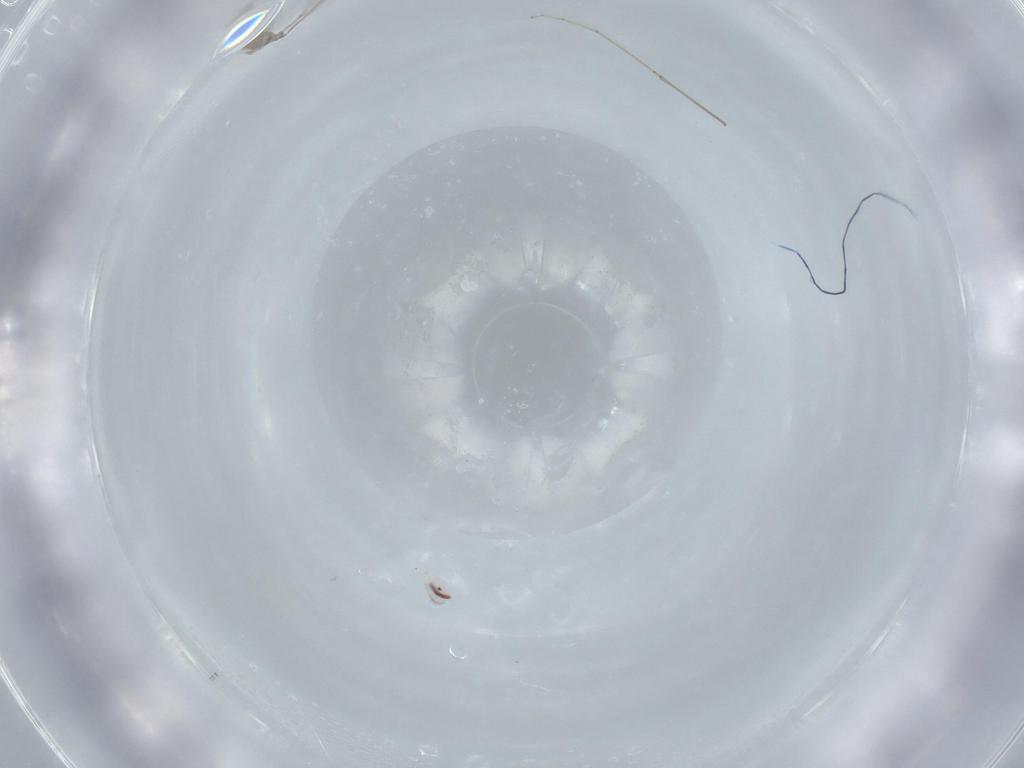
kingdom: Animalia
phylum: Arthropoda
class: Insecta
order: Diptera
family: Cecidomyiidae
